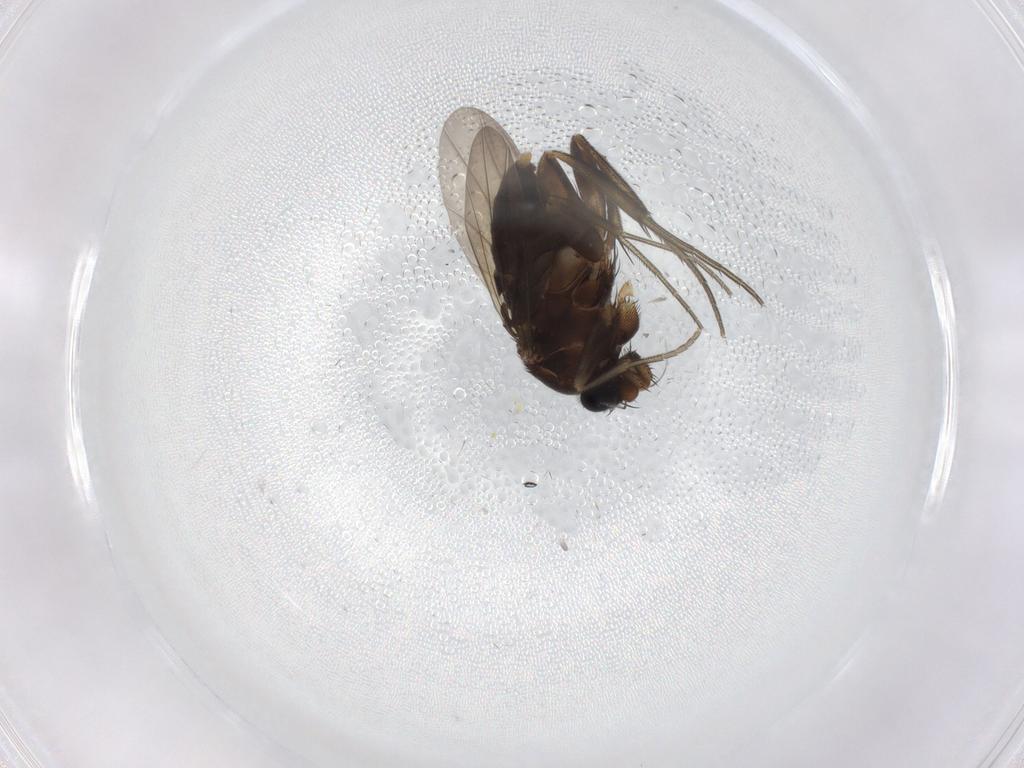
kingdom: Animalia
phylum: Arthropoda
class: Insecta
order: Diptera
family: Phoridae
